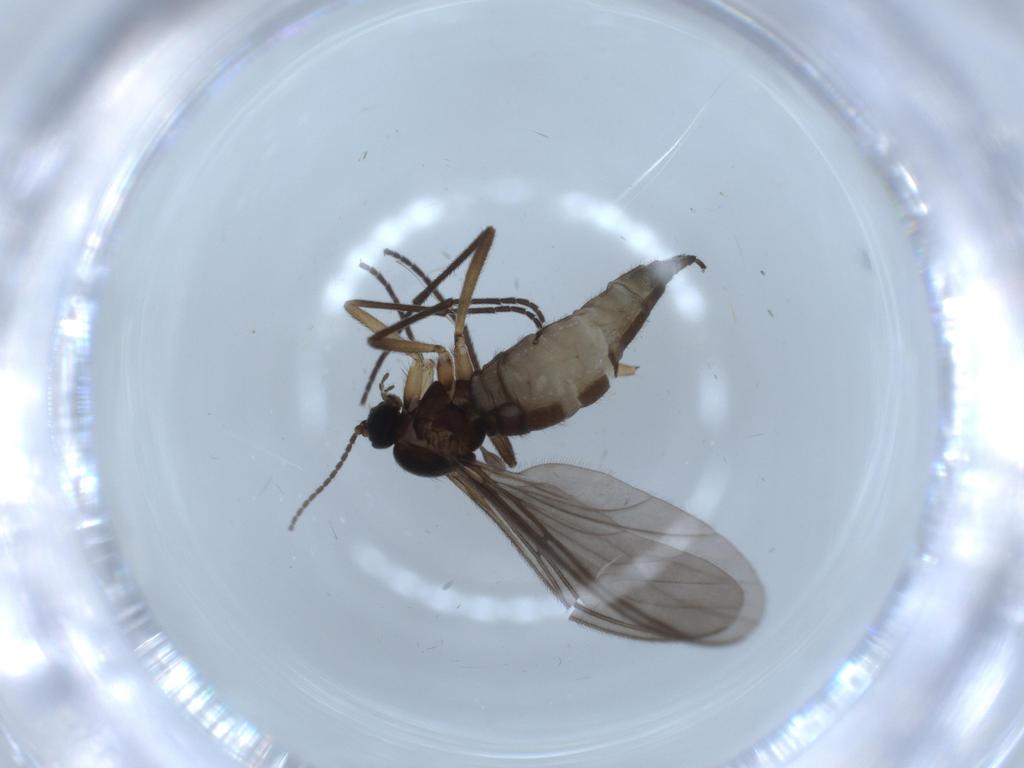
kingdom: Animalia
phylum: Arthropoda
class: Insecta
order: Diptera
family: Sciaridae
